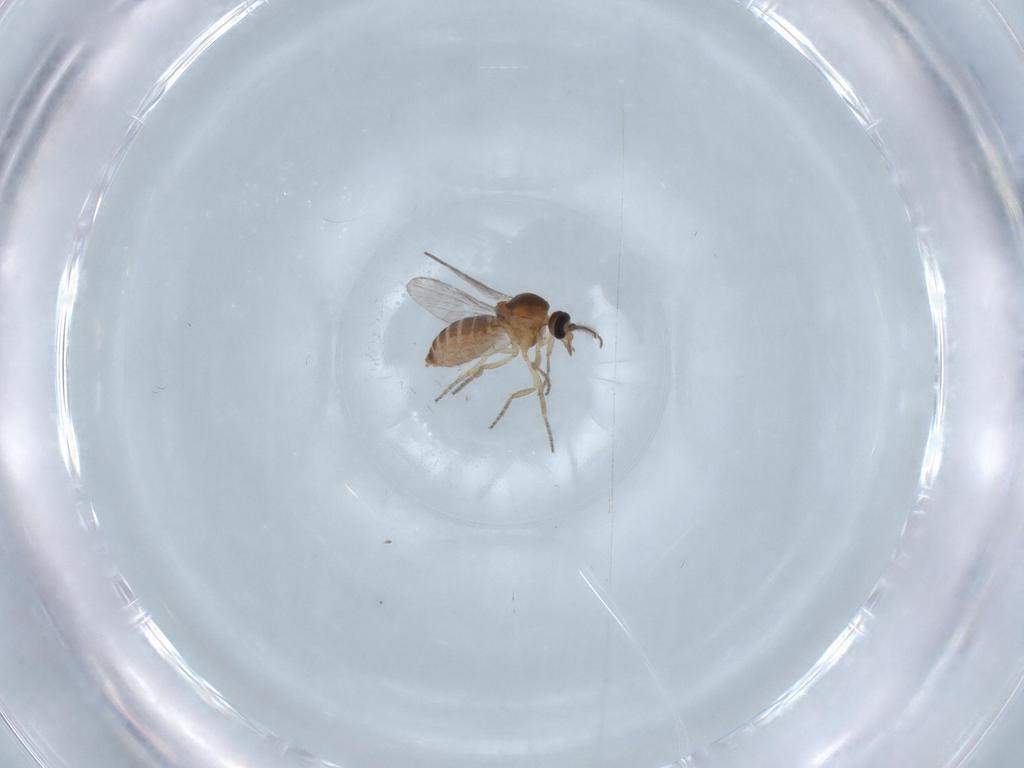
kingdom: Animalia
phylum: Arthropoda
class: Insecta
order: Diptera
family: Ceratopogonidae
